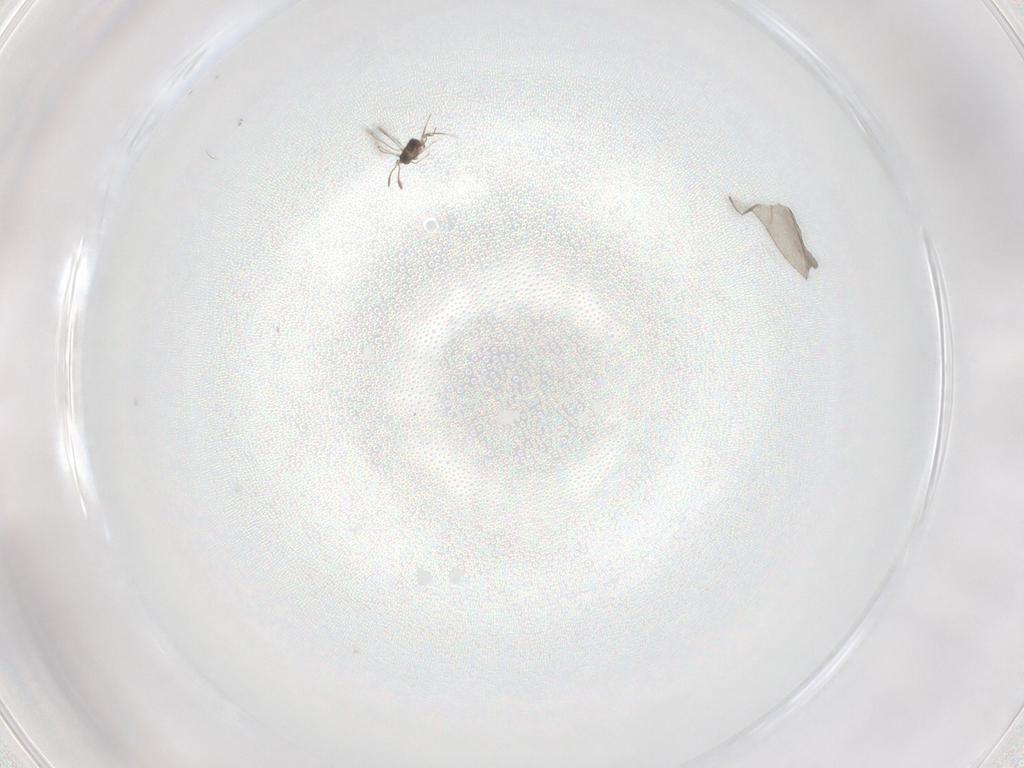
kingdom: Animalia
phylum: Arthropoda
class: Insecta
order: Hymenoptera
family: Mymaridae
